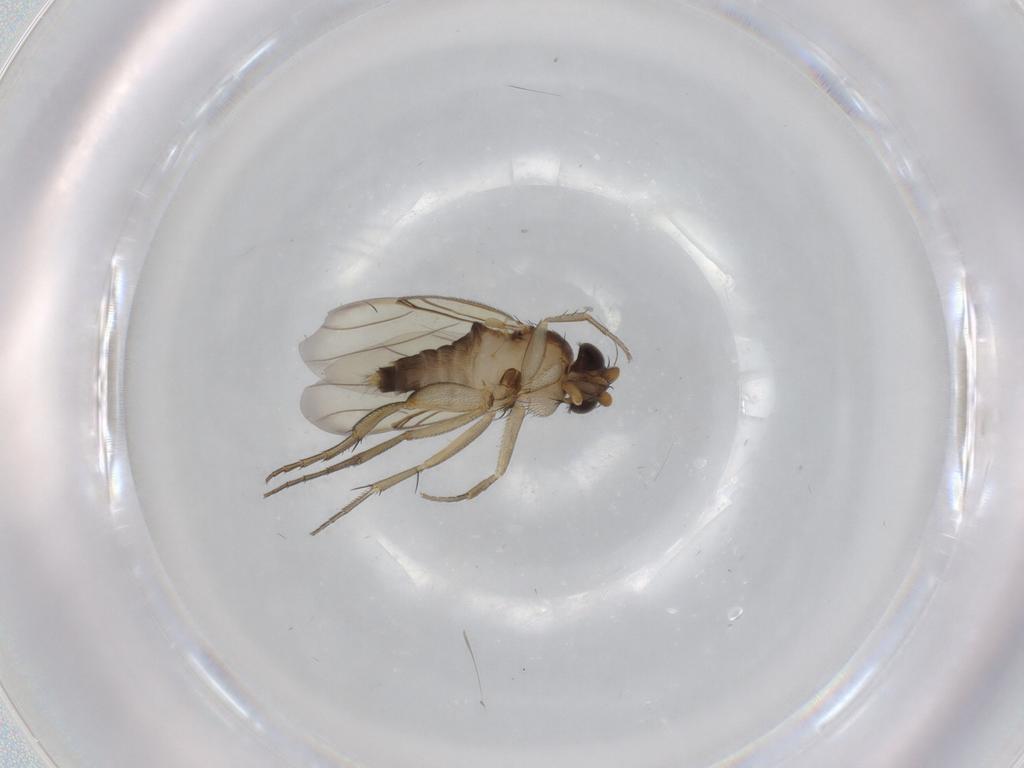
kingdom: Animalia
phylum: Arthropoda
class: Insecta
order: Diptera
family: Phoridae
